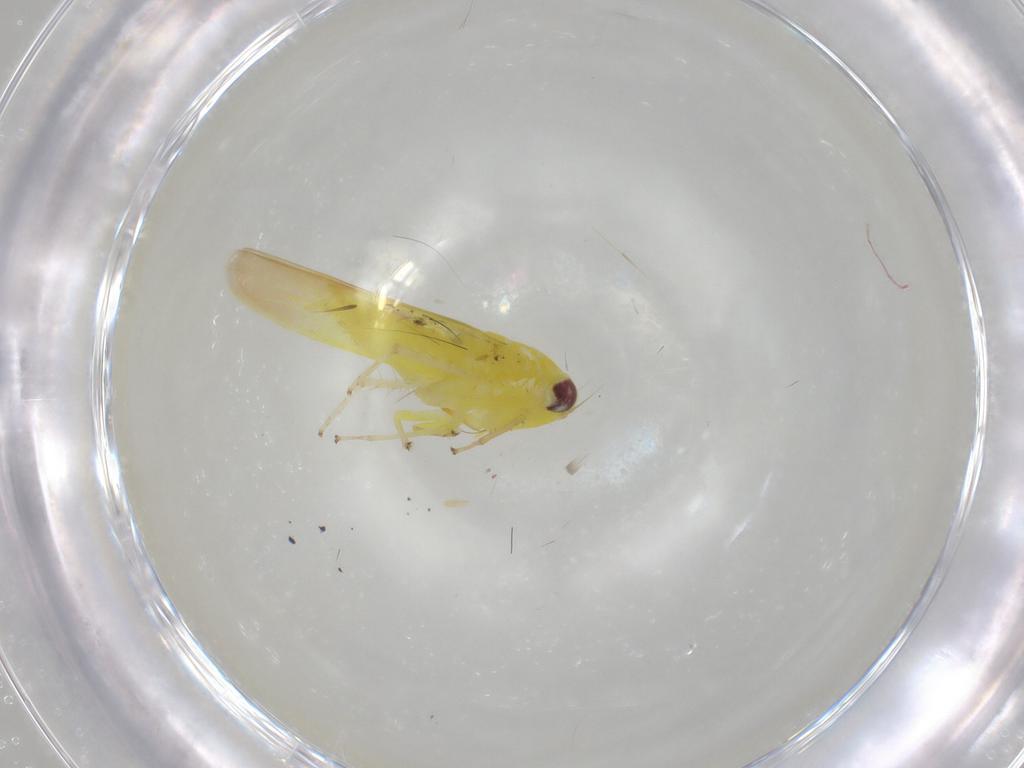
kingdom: Animalia
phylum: Arthropoda
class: Insecta
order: Hemiptera
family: Cicadellidae
